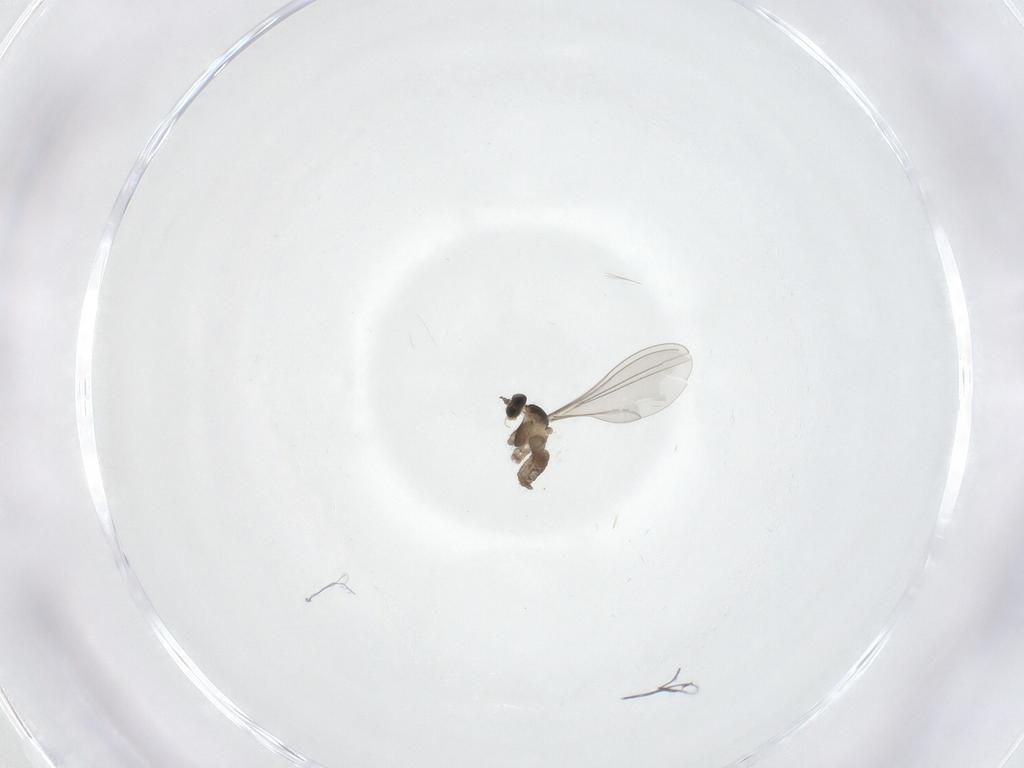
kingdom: Animalia
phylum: Arthropoda
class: Insecta
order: Diptera
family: Cecidomyiidae
